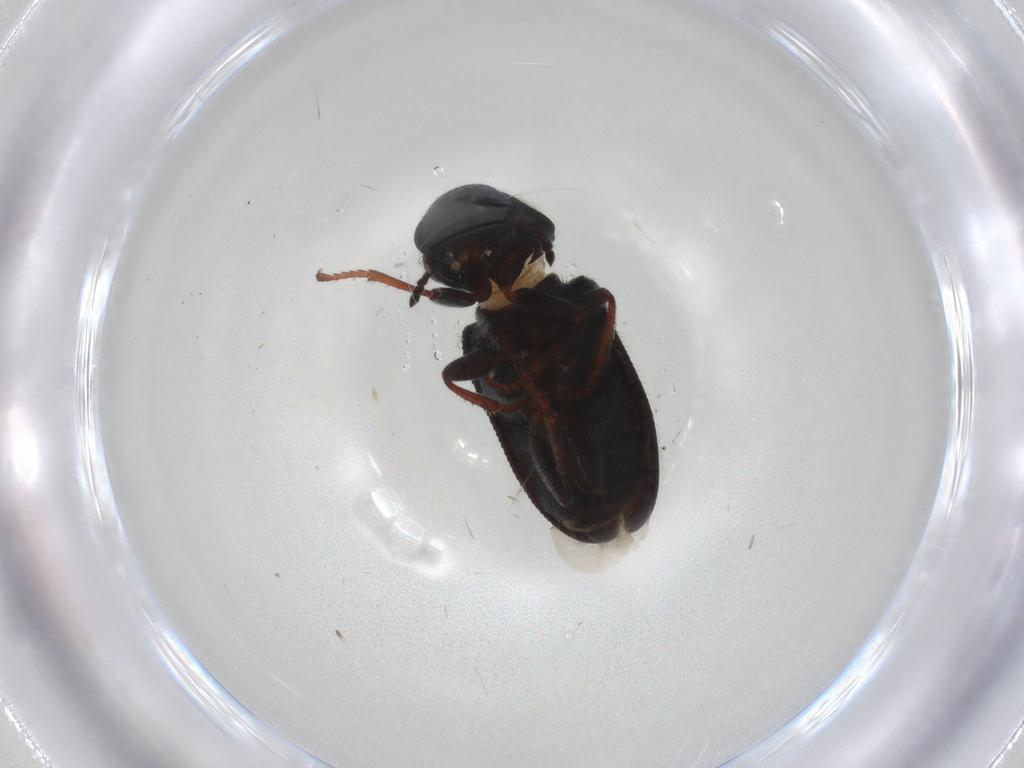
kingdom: Animalia
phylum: Arthropoda
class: Insecta
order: Coleoptera
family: Melyridae
